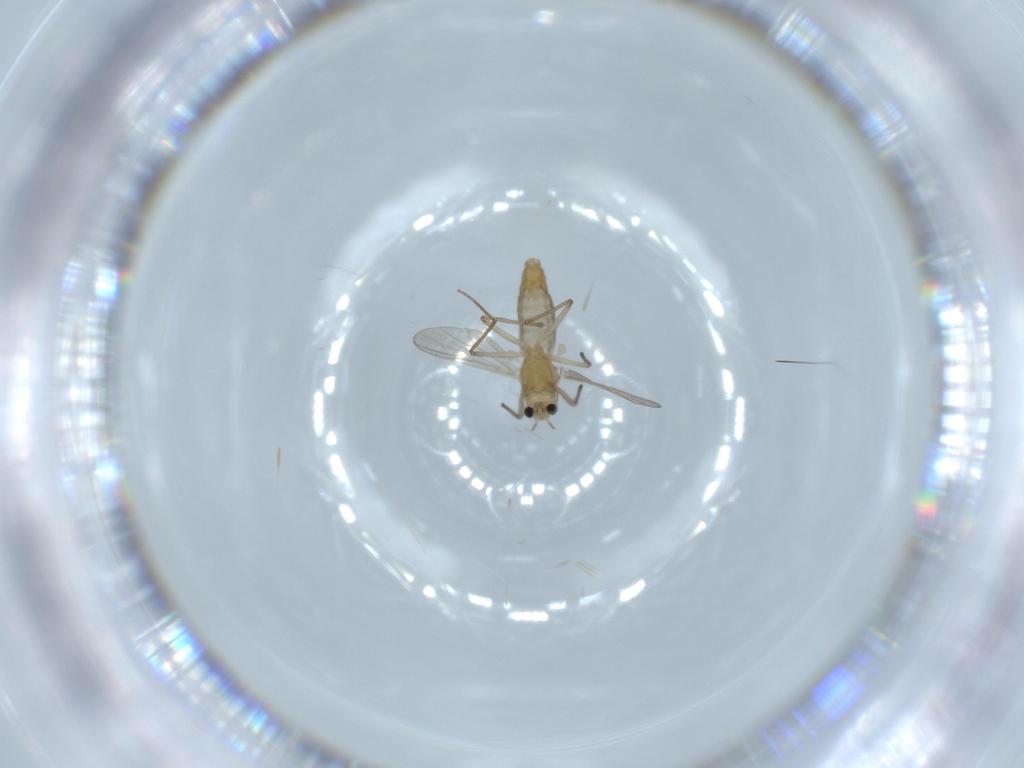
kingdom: Animalia
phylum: Arthropoda
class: Insecta
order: Diptera
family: Chironomidae
